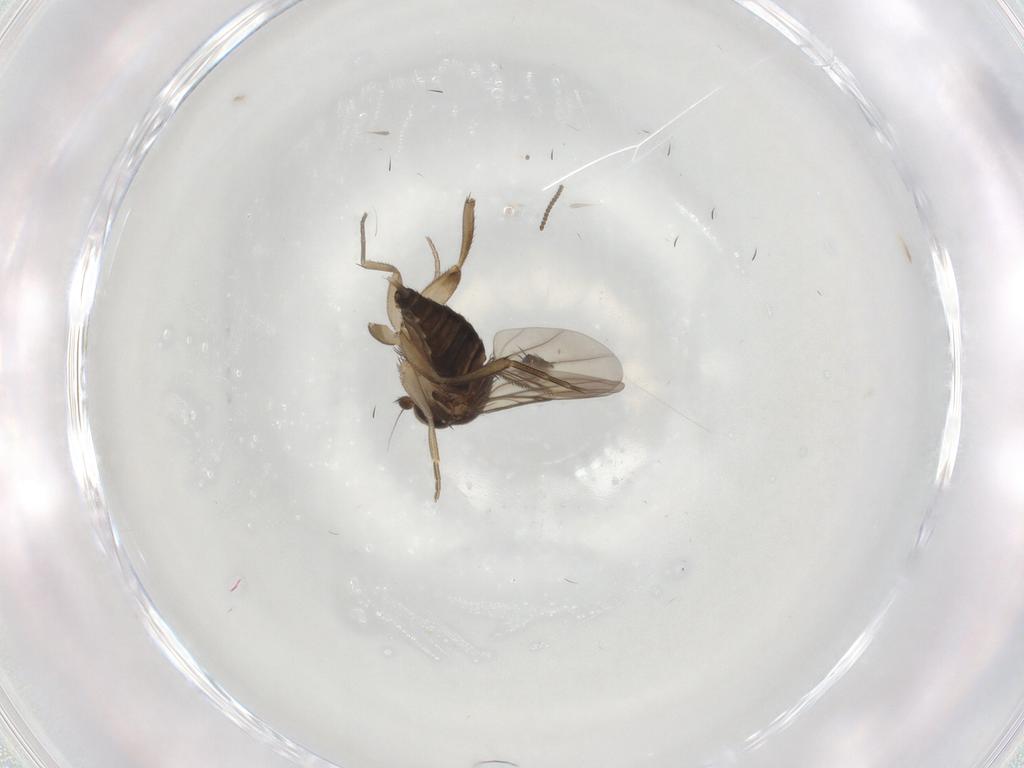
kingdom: Animalia
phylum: Arthropoda
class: Insecta
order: Diptera
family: Phoridae
